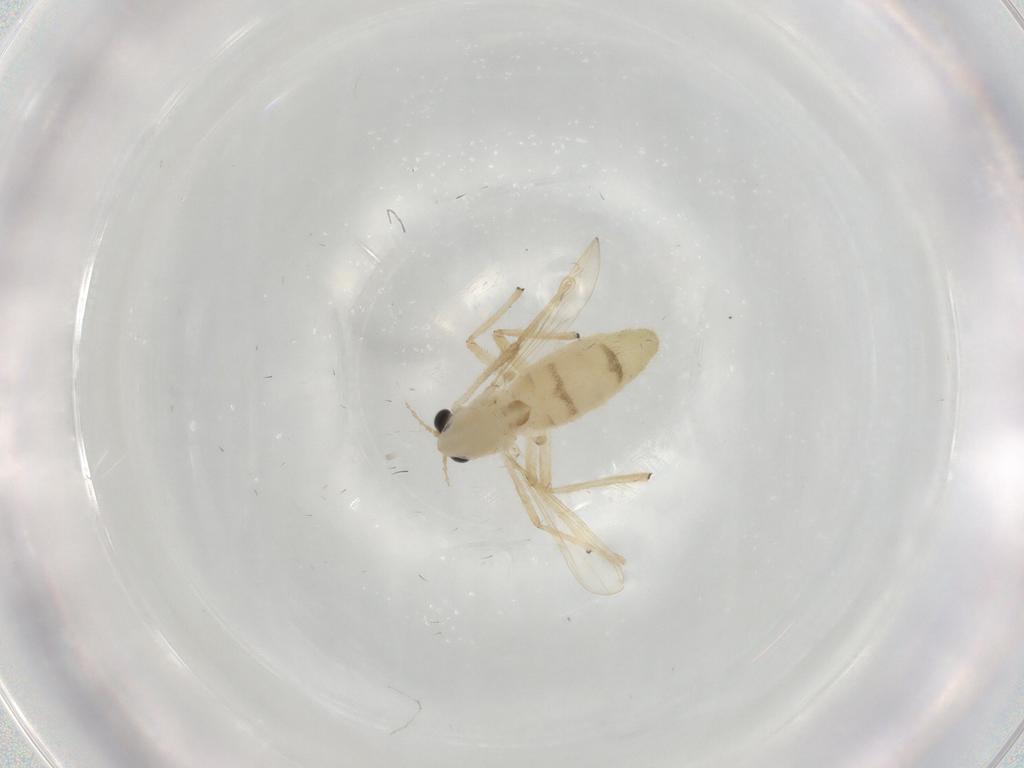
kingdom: Animalia
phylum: Arthropoda
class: Insecta
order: Diptera
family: Chironomidae
